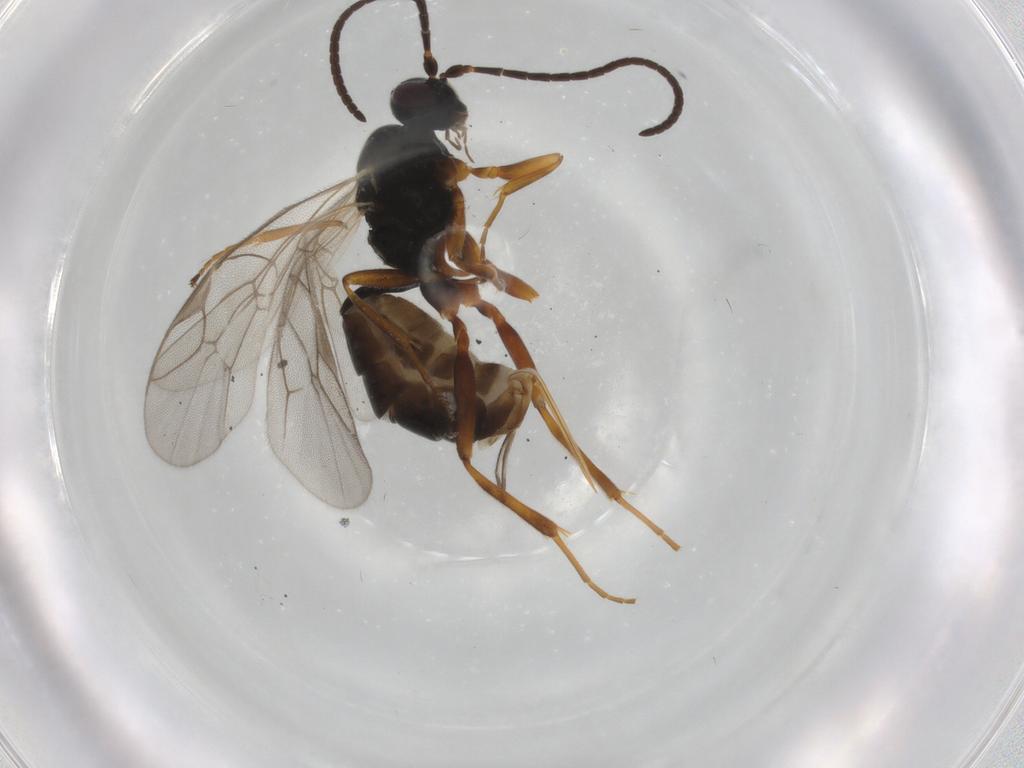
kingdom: Animalia
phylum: Arthropoda
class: Insecta
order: Hymenoptera
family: Ichneumonidae
